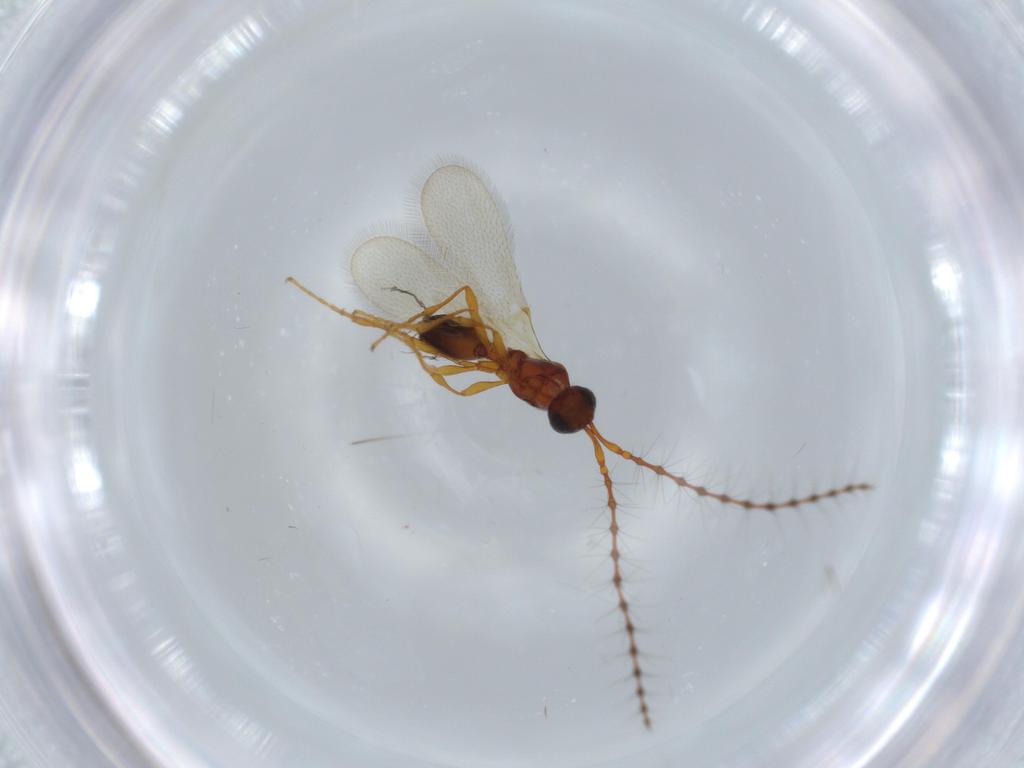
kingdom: Animalia
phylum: Arthropoda
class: Insecta
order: Hymenoptera
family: Diapriidae
